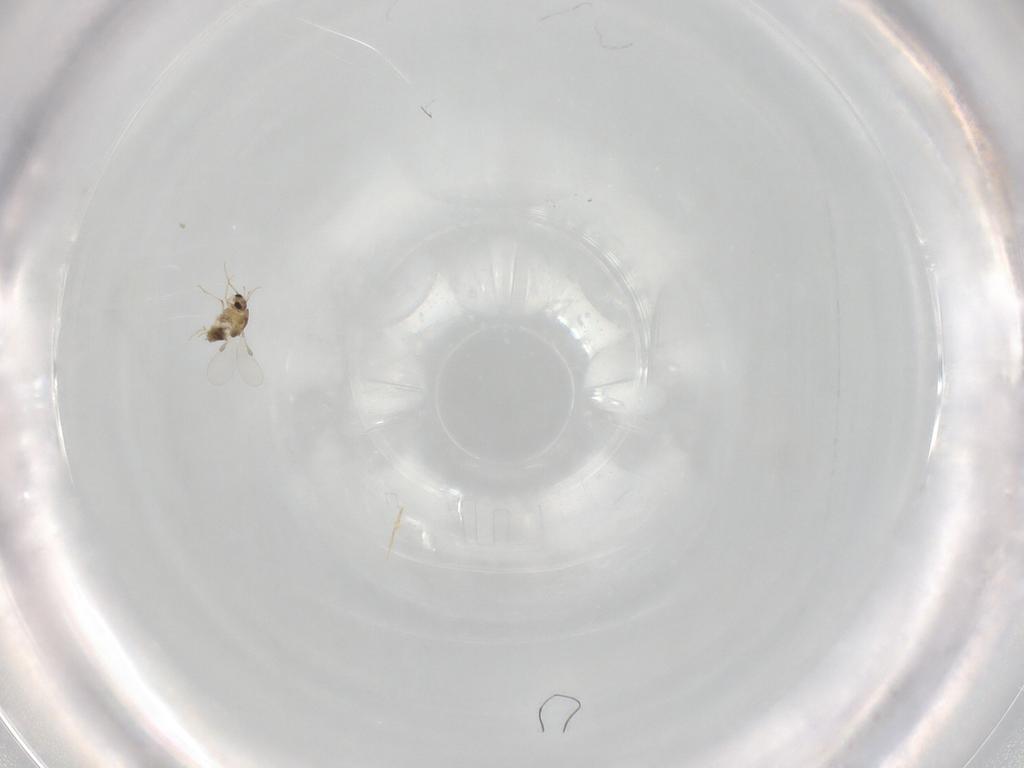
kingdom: Animalia
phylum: Arthropoda
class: Insecta
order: Diptera
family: Chironomidae
